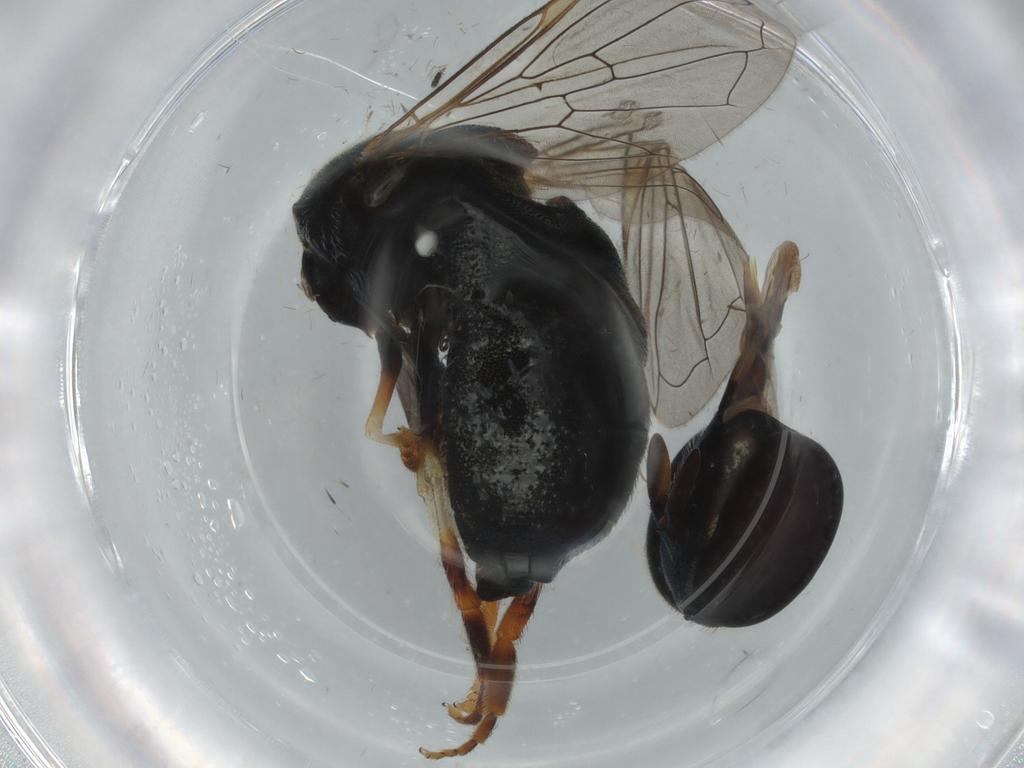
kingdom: Animalia
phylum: Arthropoda
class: Insecta
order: Diptera
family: Syrphidae
